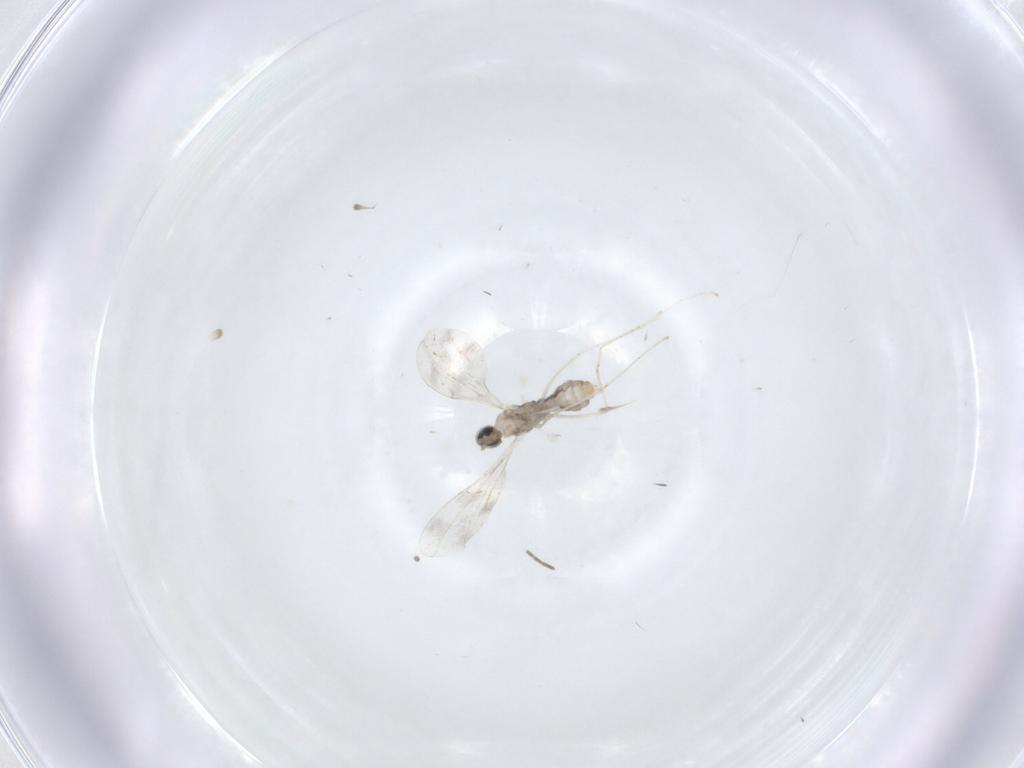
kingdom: Animalia
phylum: Arthropoda
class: Insecta
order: Diptera
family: Cecidomyiidae
